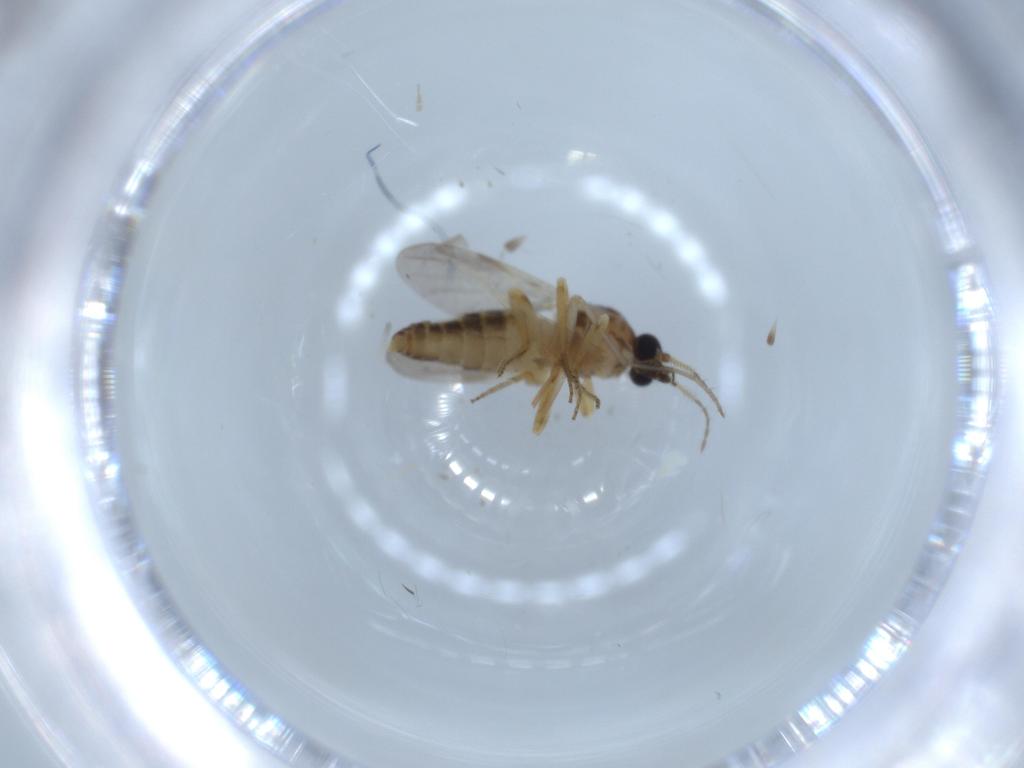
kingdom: Animalia
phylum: Arthropoda
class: Insecta
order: Diptera
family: Ceratopogonidae
